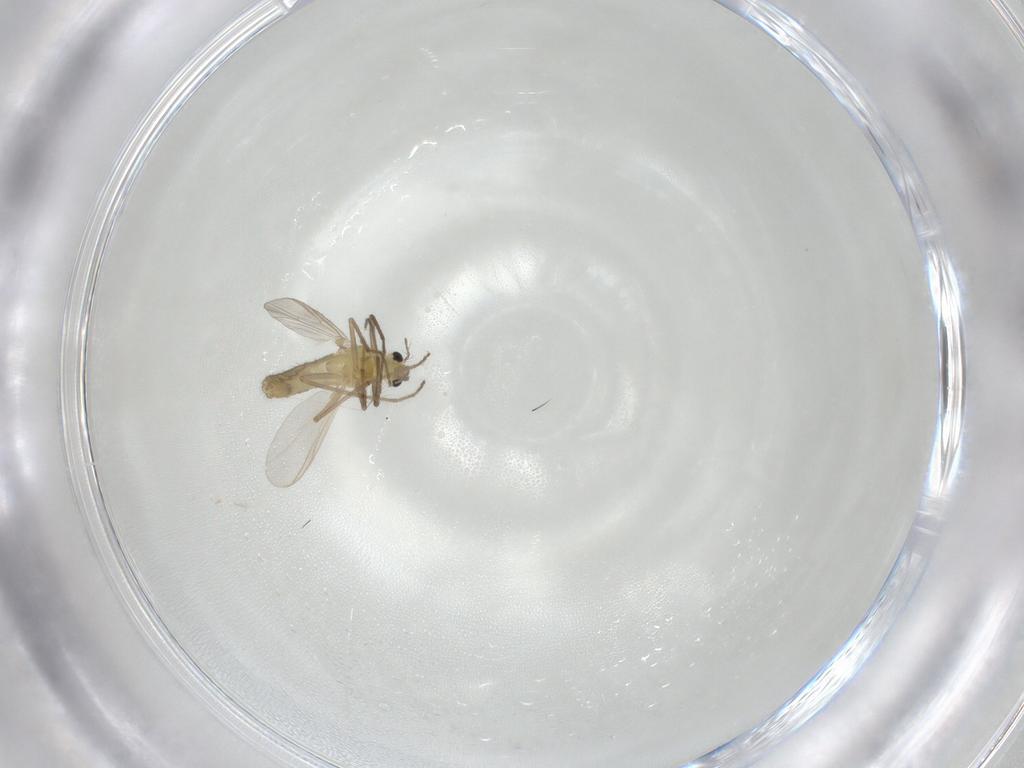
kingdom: Animalia
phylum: Arthropoda
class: Insecta
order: Diptera
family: Chironomidae
